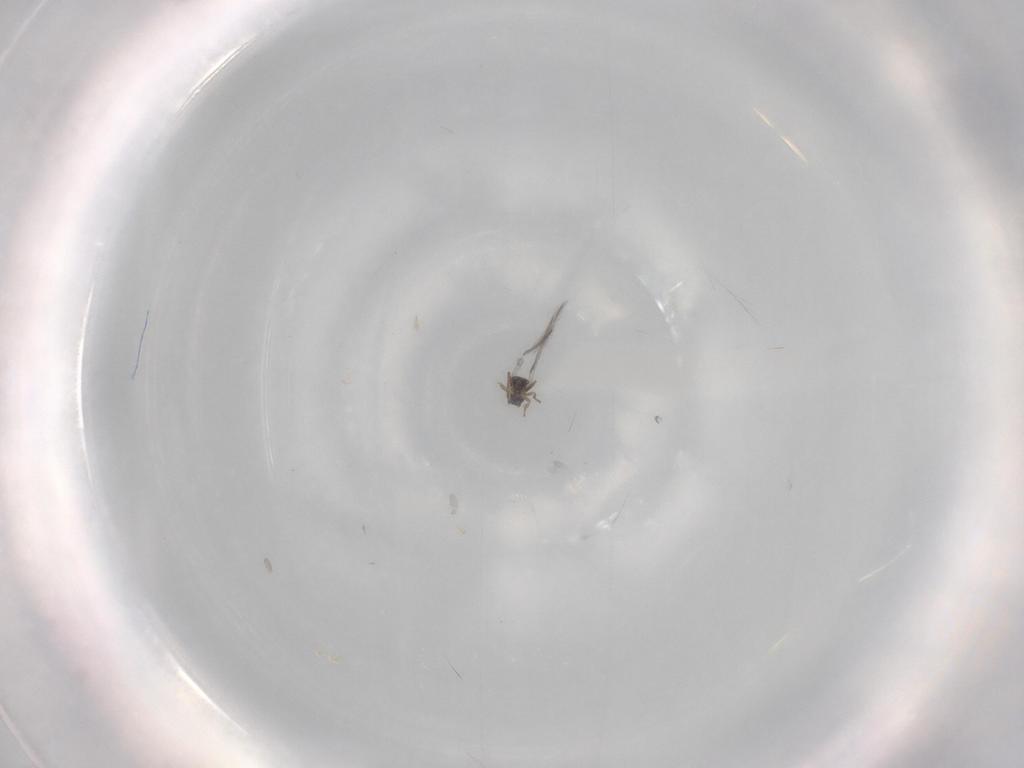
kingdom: Animalia
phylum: Arthropoda
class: Insecta
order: Hymenoptera
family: Mymaridae
